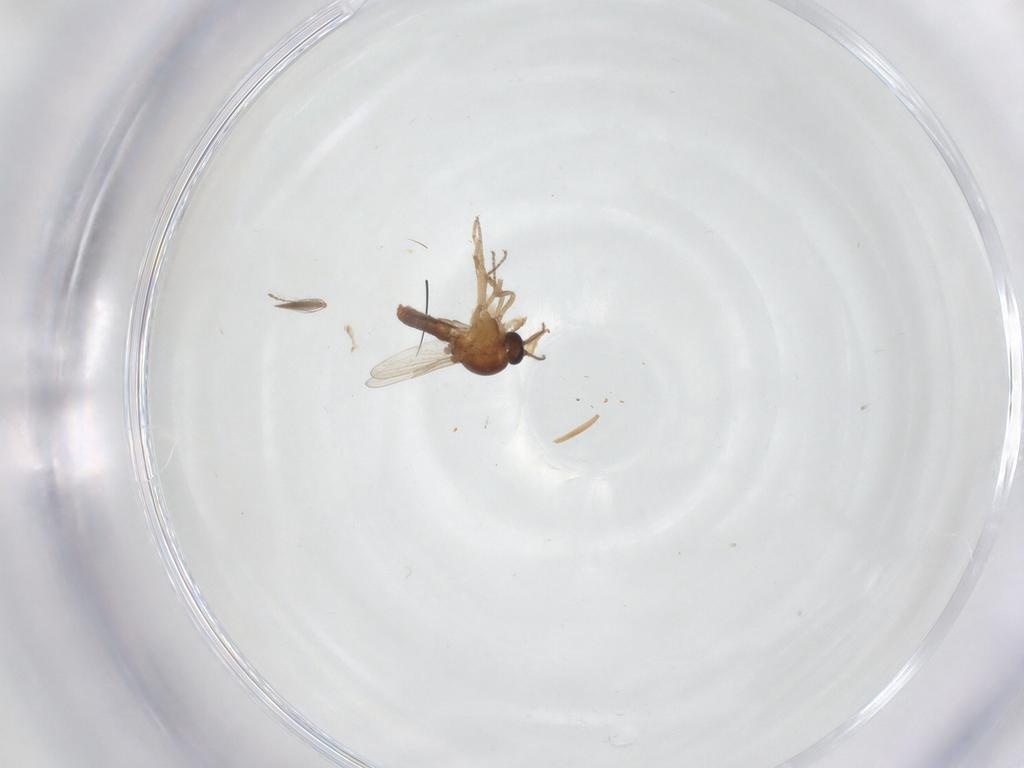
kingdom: Animalia
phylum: Arthropoda
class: Insecta
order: Diptera
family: Ceratopogonidae
